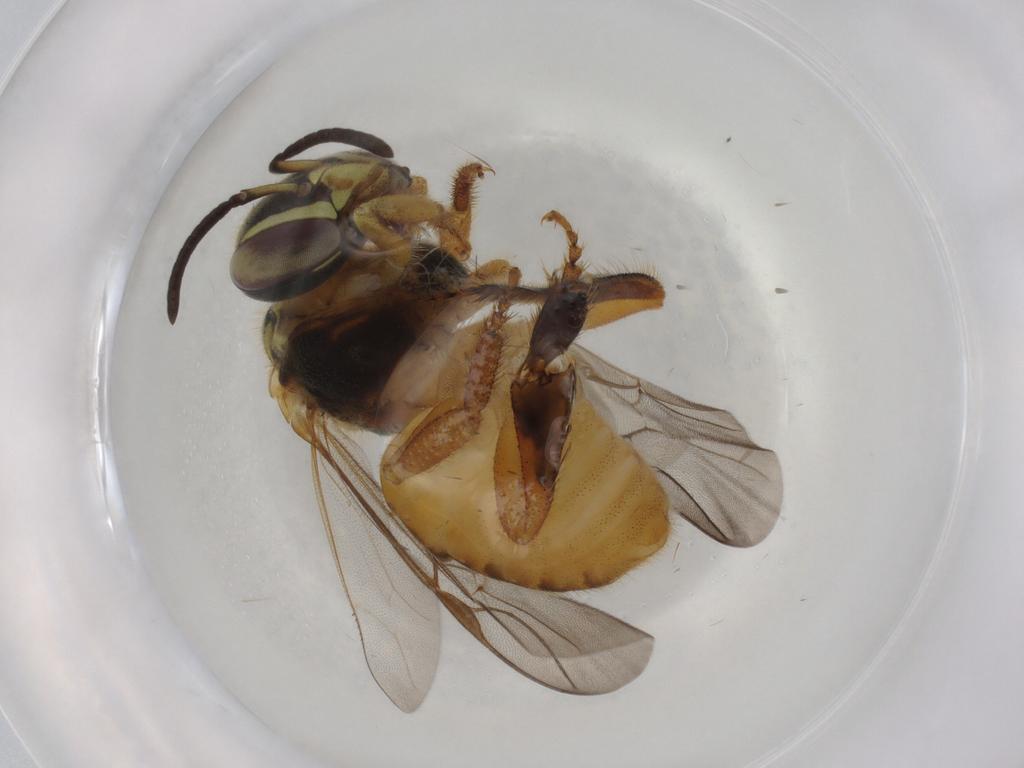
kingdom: Animalia
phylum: Arthropoda
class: Insecta
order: Hymenoptera
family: Apidae
